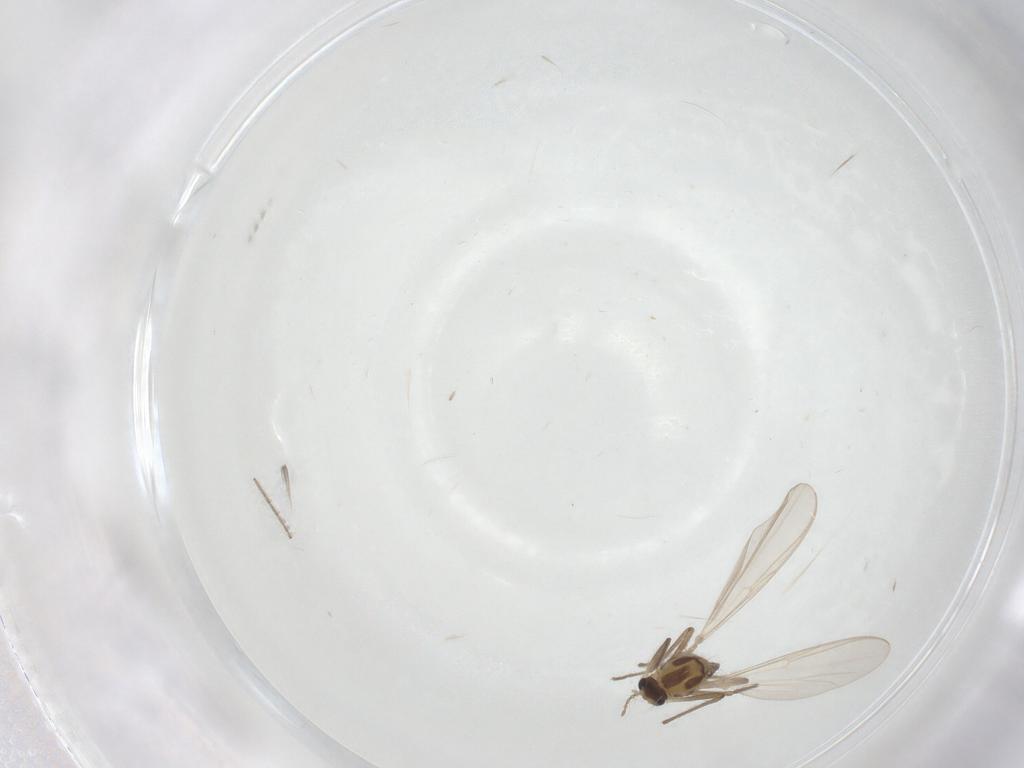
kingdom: Animalia
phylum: Arthropoda
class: Insecta
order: Diptera
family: Chironomidae
